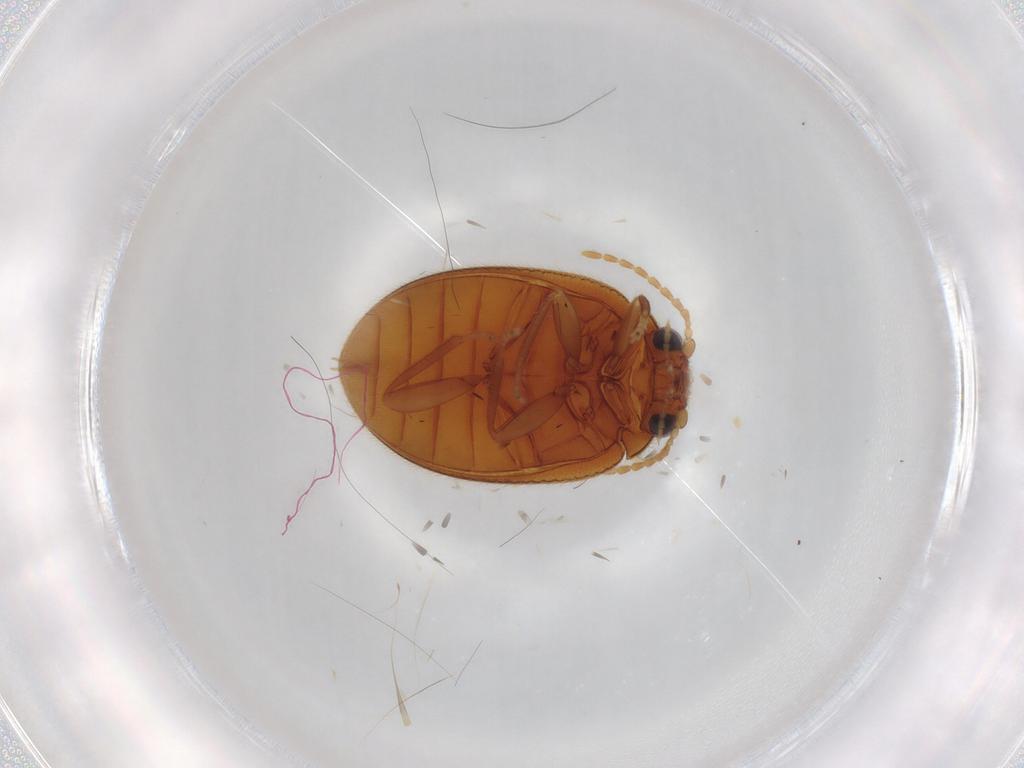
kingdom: Animalia
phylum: Arthropoda
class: Insecta
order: Coleoptera
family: Scirtidae
